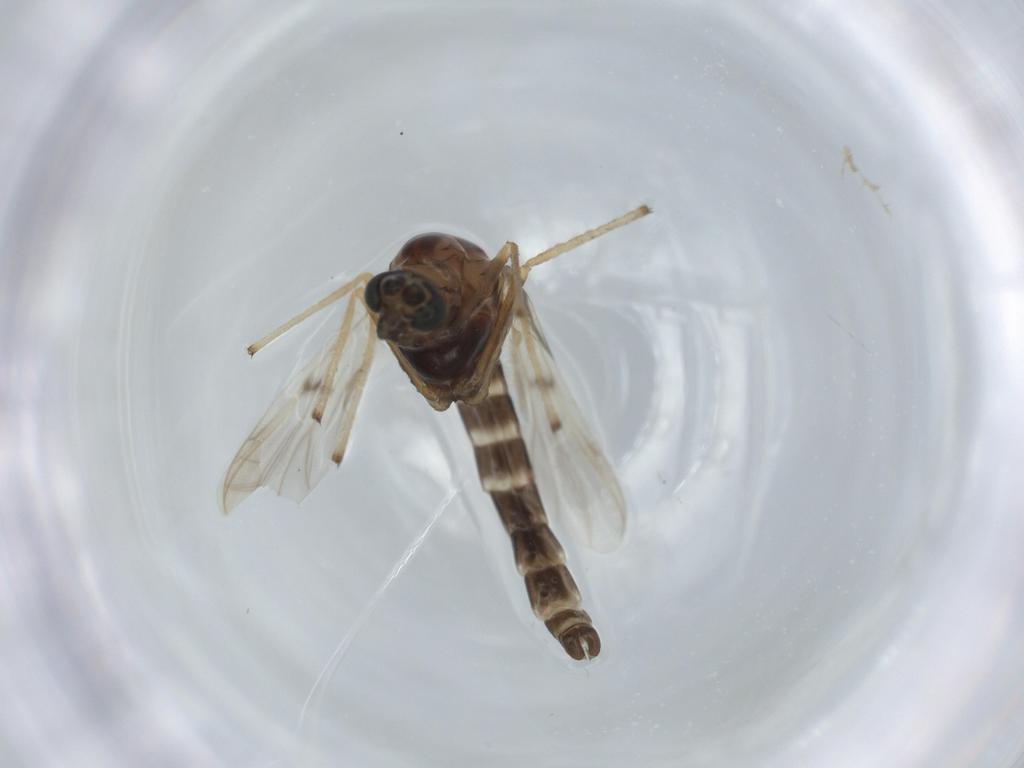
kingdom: Animalia
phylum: Arthropoda
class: Insecta
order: Diptera
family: Chironomidae
